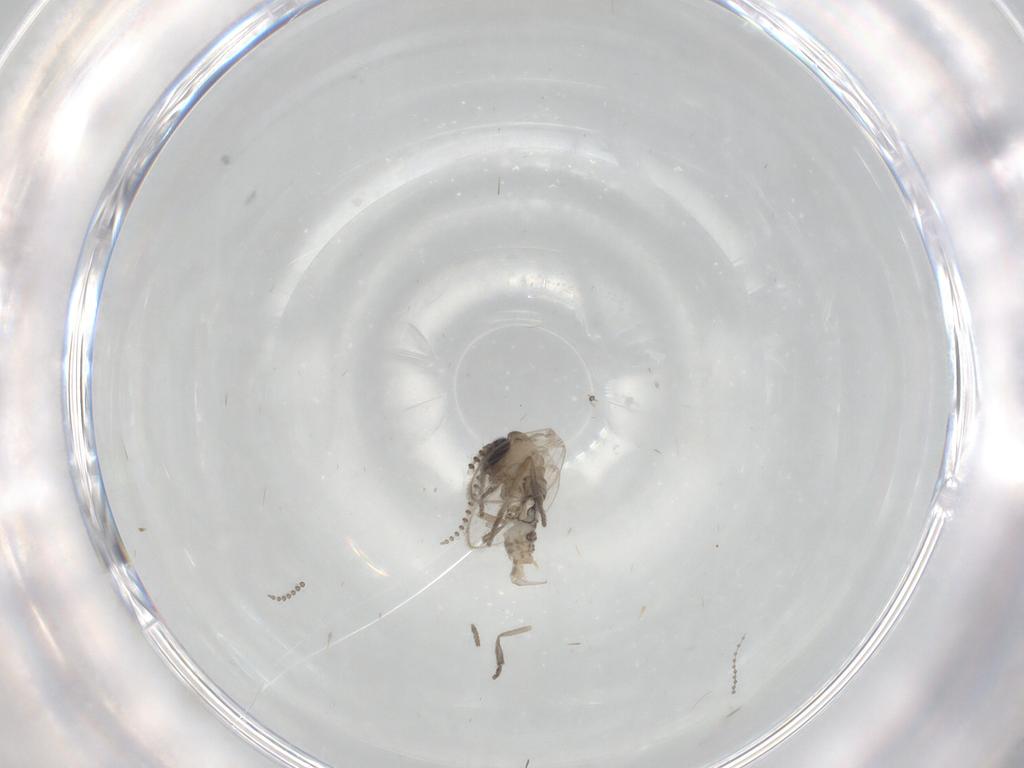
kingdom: Animalia
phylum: Arthropoda
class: Insecta
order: Diptera
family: Psychodidae
